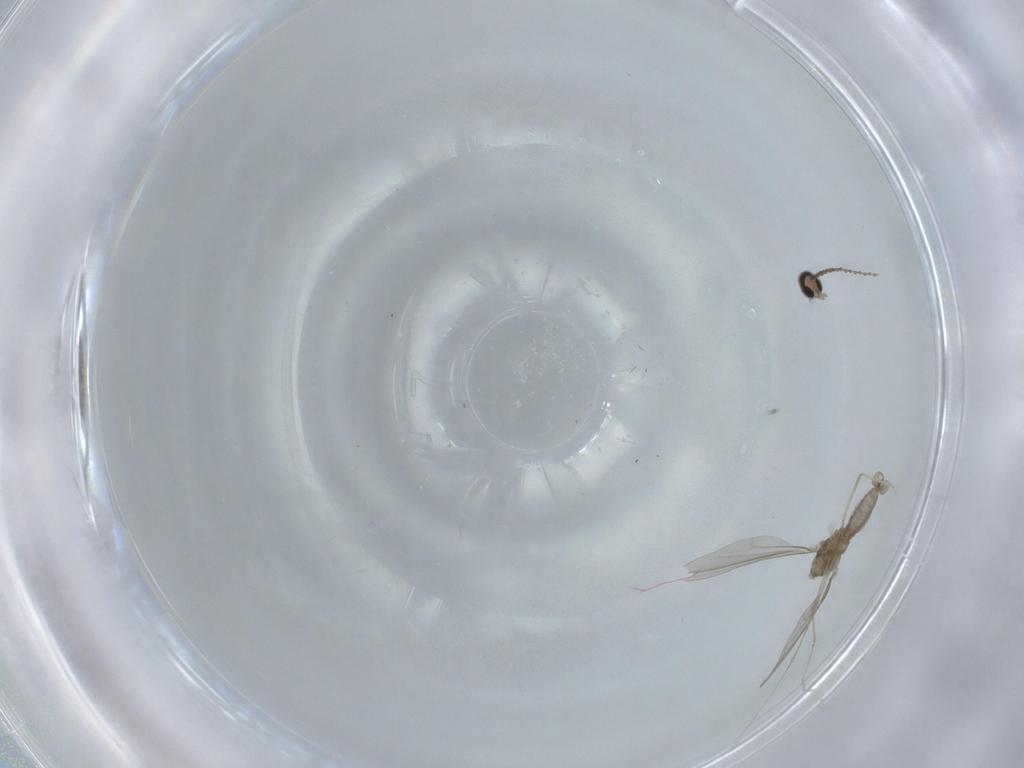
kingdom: Animalia
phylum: Arthropoda
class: Insecta
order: Diptera
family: Cecidomyiidae
